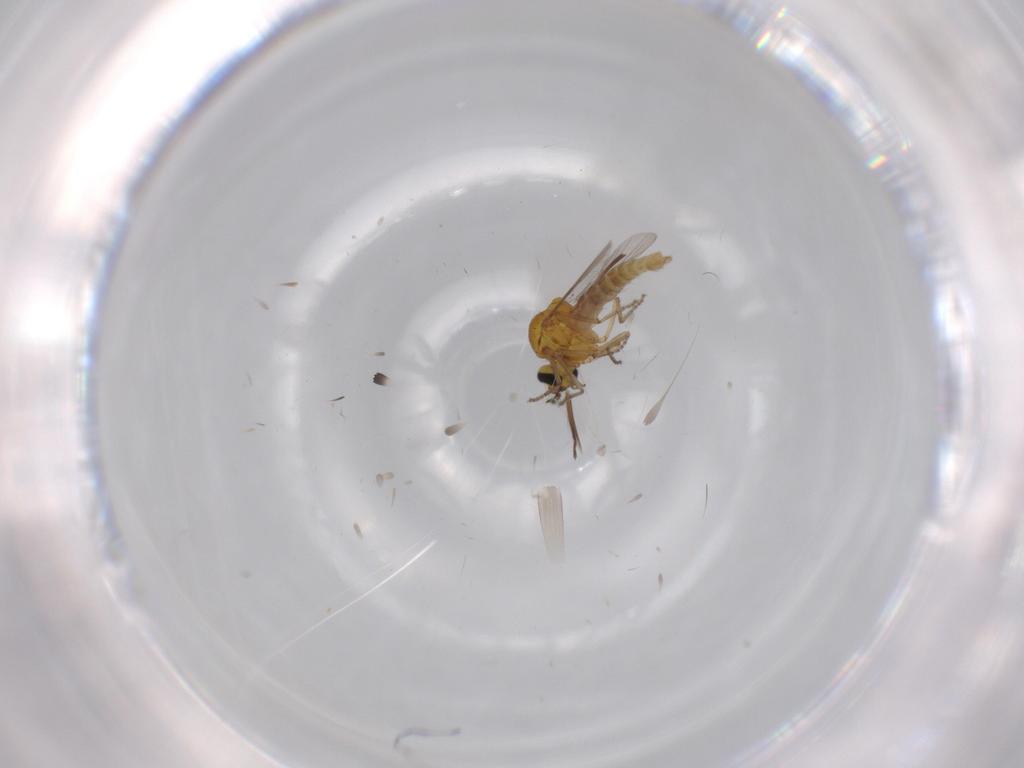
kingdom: Animalia
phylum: Arthropoda
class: Insecta
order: Diptera
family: Ceratopogonidae
